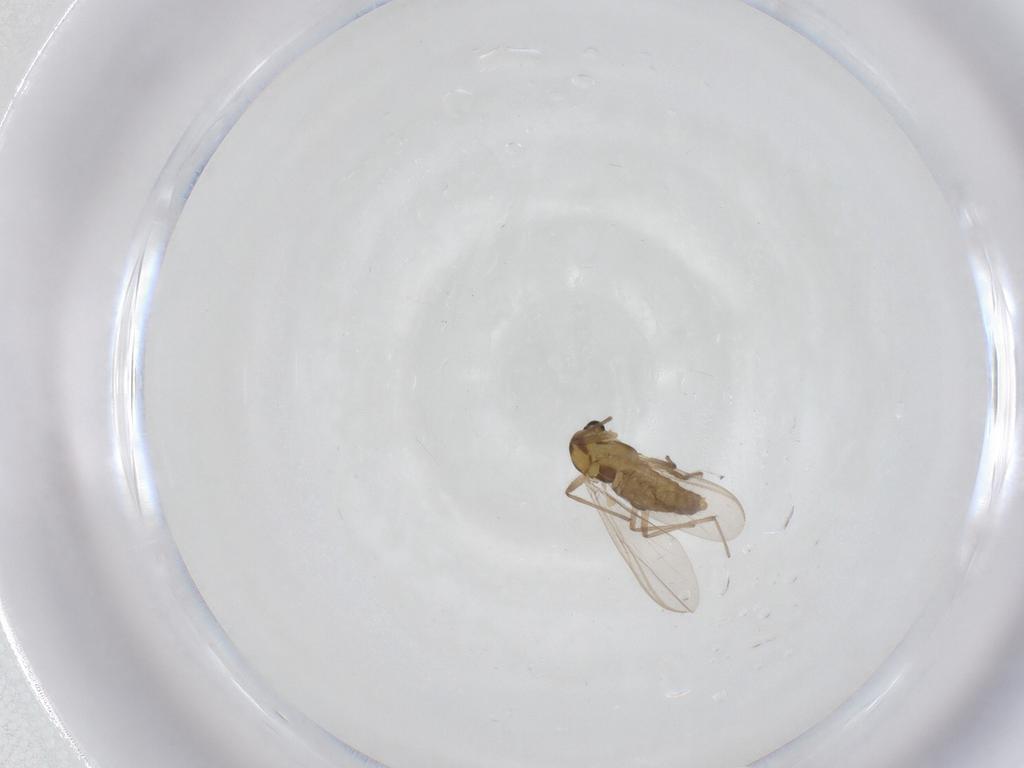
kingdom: Animalia
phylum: Arthropoda
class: Insecta
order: Diptera
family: Chironomidae
